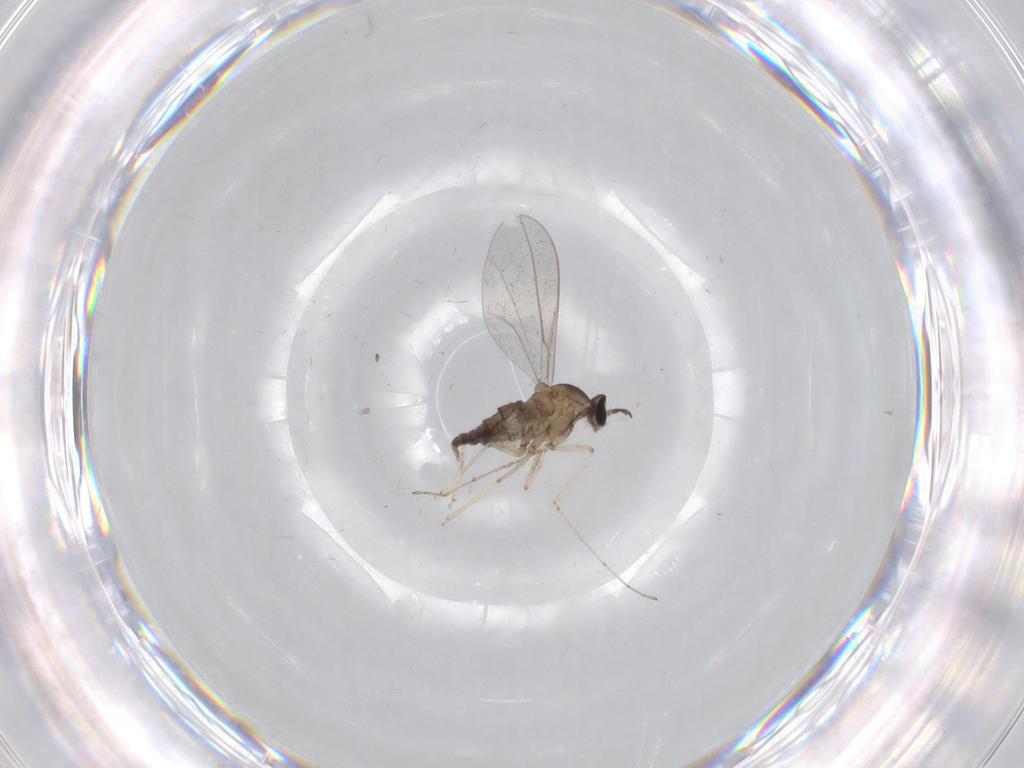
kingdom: Animalia
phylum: Arthropoda
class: Insecta
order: Diptera
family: Cecidomyiidae
